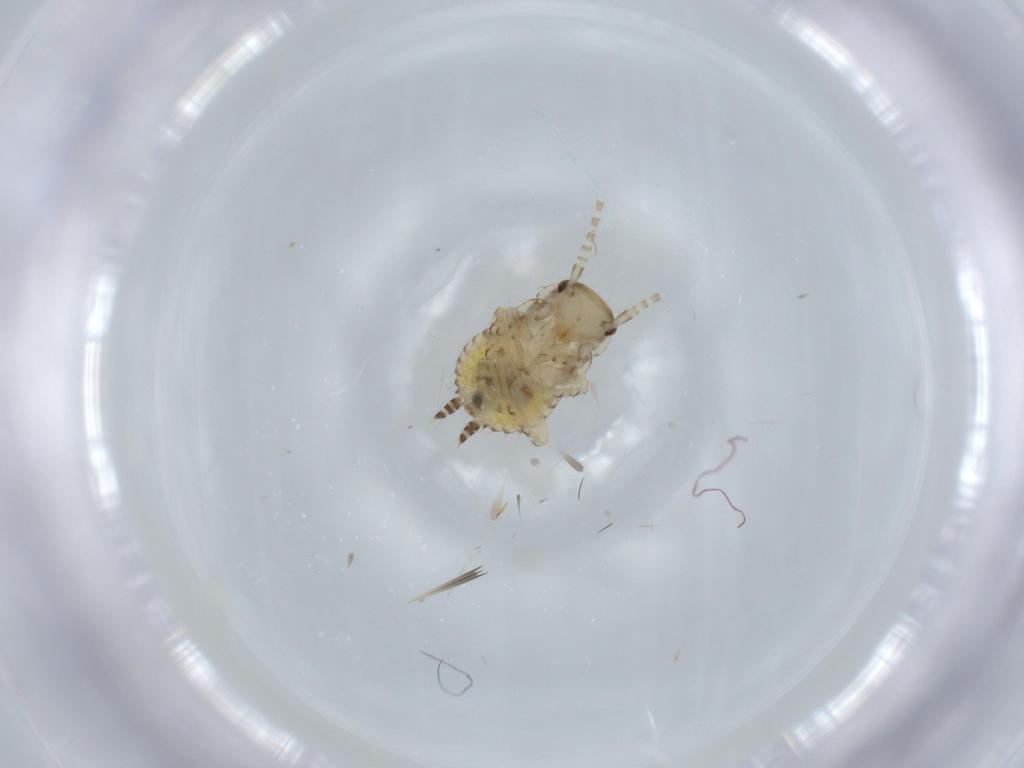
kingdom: Animalia
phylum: Arthropoda
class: Insecta
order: Blattodea
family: Ectobiidae
